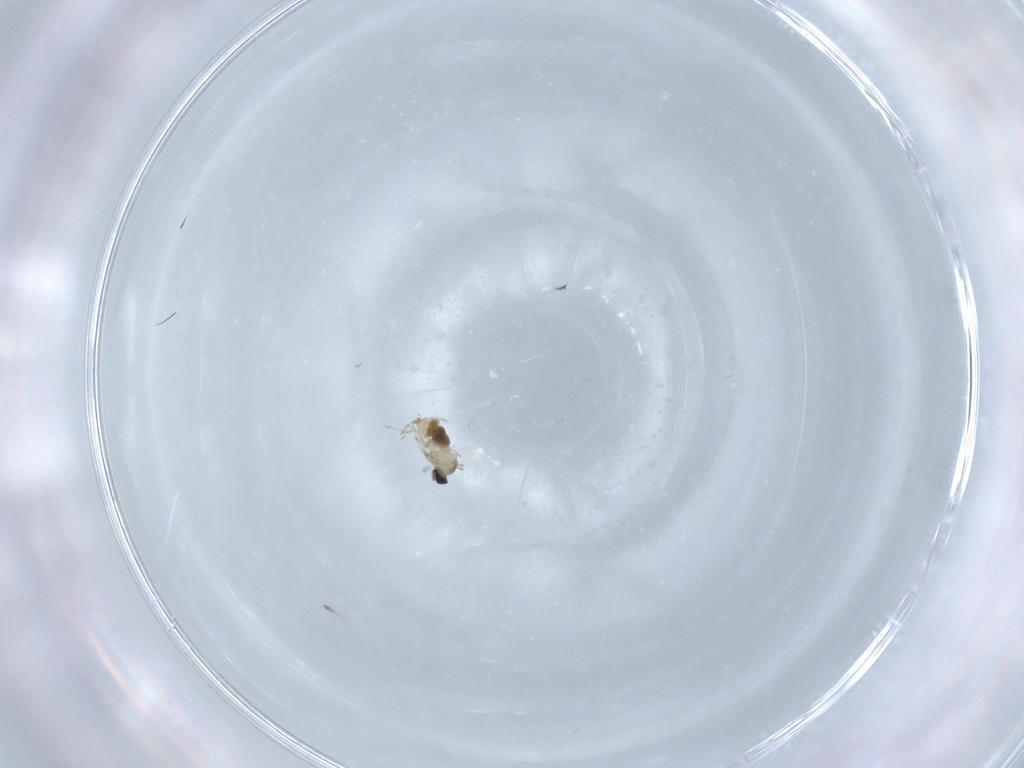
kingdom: Animalia
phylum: Arthropoda
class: Insecta
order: Diptera
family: Cecidomyiidae
